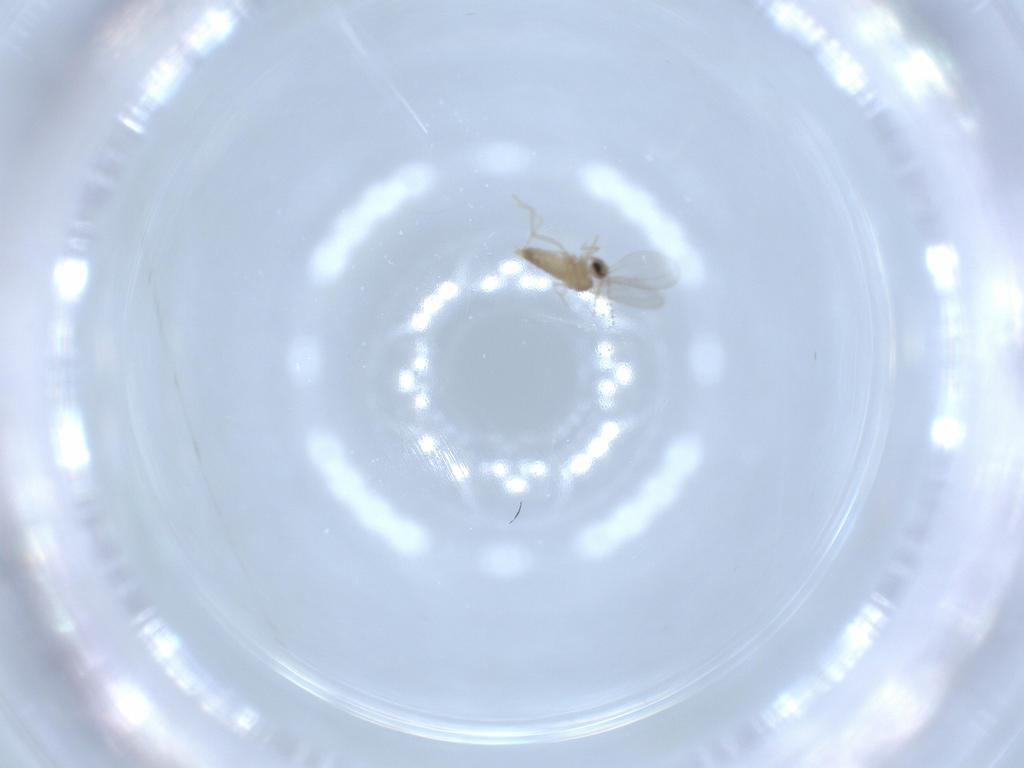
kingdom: Animalia
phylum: Arthropoda
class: Insecta
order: Diptera
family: Cecidomyiidae
